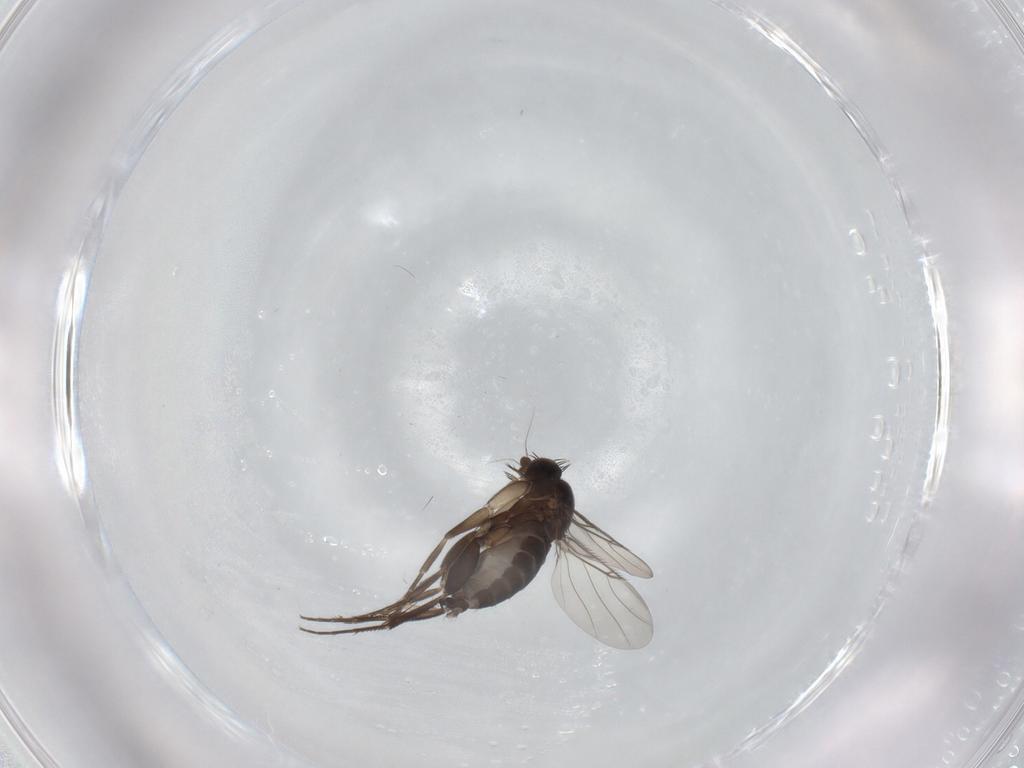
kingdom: Animalia
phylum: Arthropoda
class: Insecta
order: Diptera
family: Phoridae
